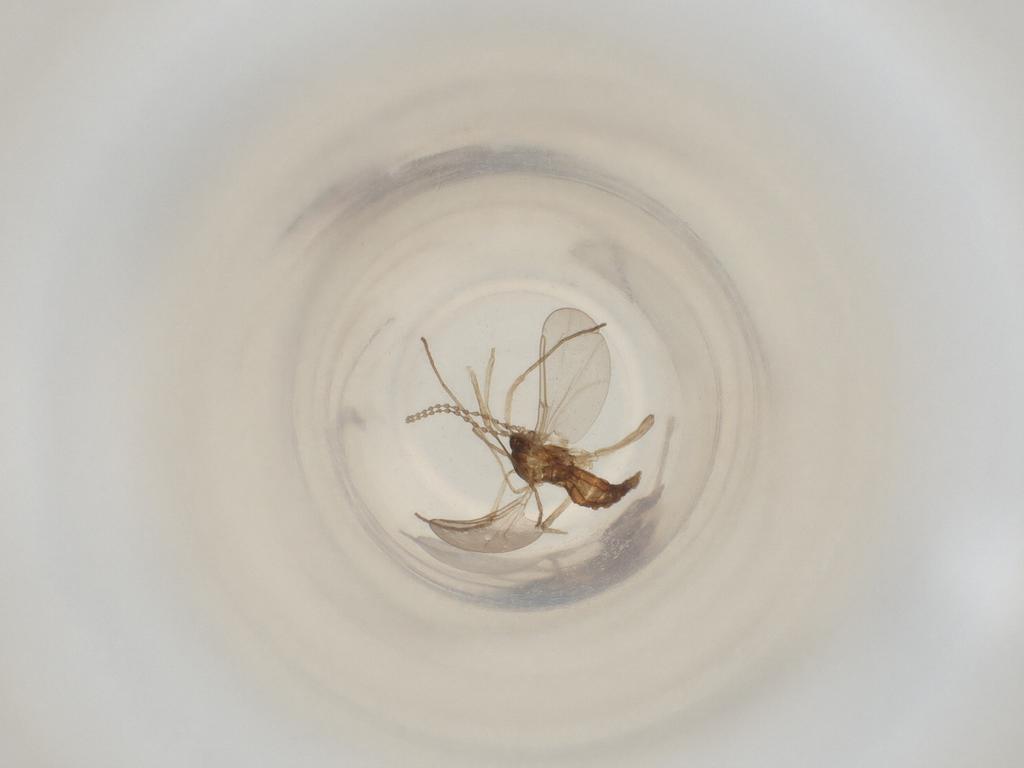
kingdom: Animalia
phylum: Arthropoda
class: Insecta
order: Diptera
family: Cecidomyiidae
